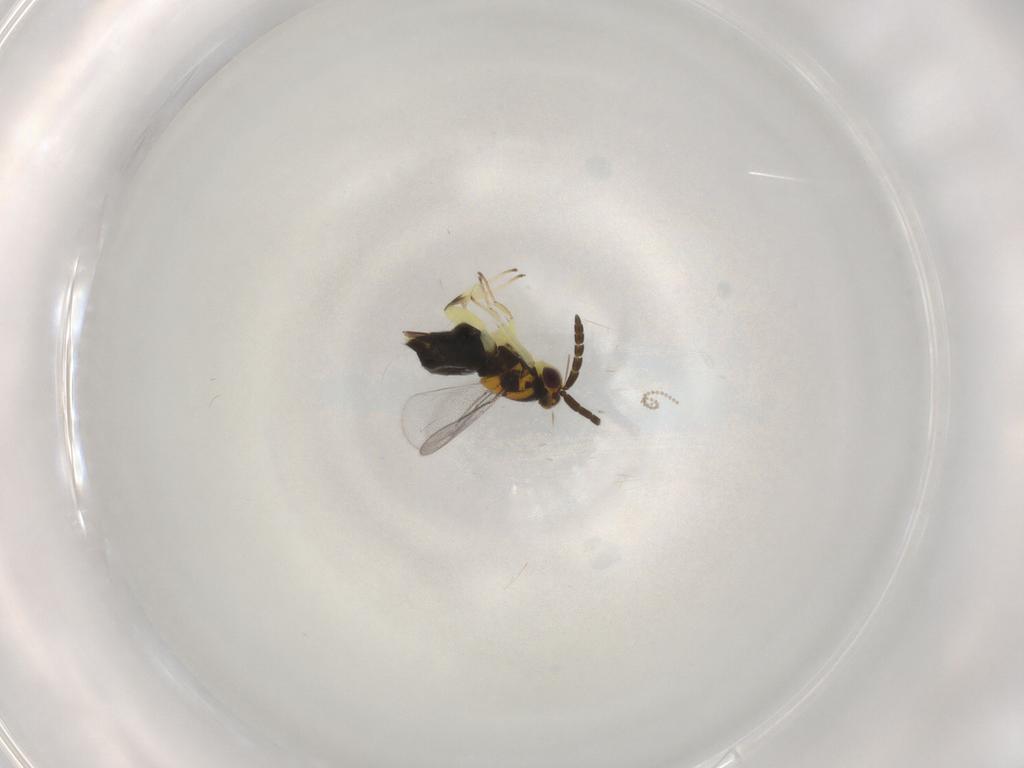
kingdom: Animalia
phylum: Arthropoda
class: Insecta
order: Hymenoptera
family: Aphelinidae
